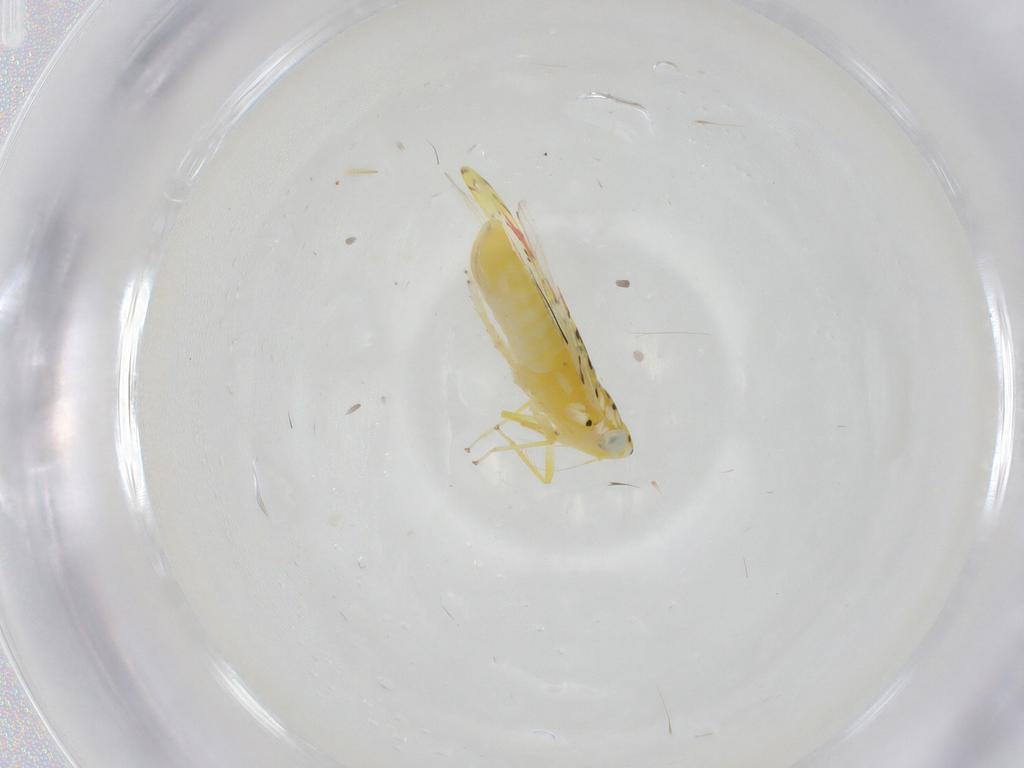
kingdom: Animalia
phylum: Arthropoda
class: Insecta
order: Hemiptera
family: Cicadellidae
